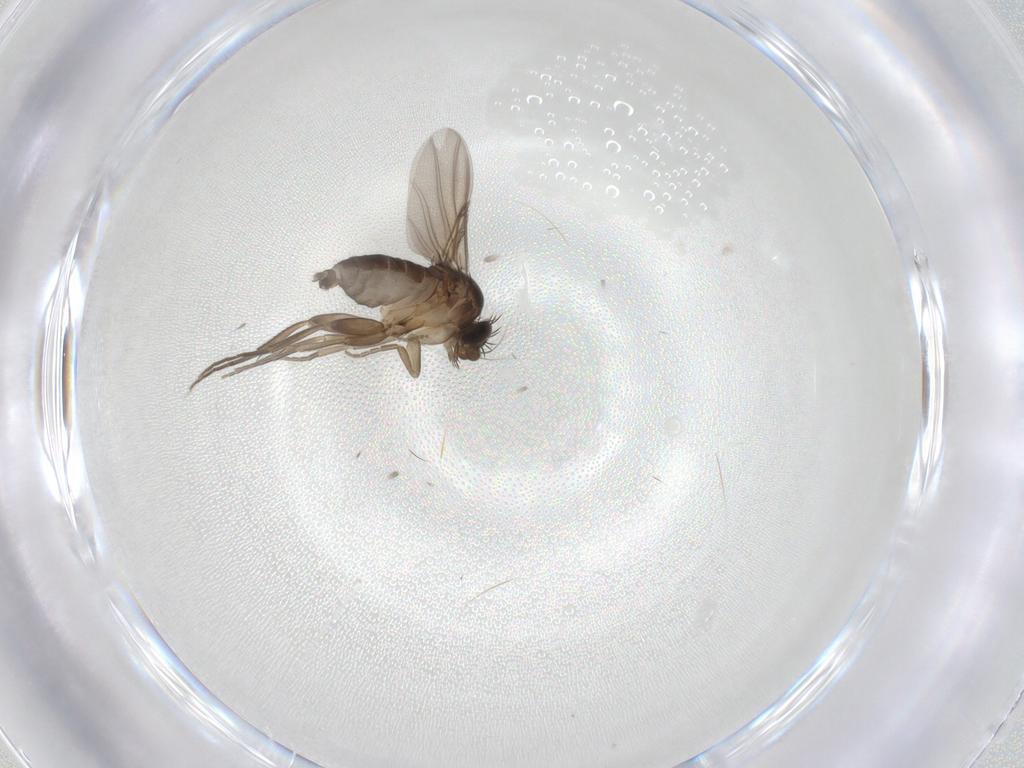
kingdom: Animalia
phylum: Arthropoda
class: Insecta
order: Diptera
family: Phoridae
